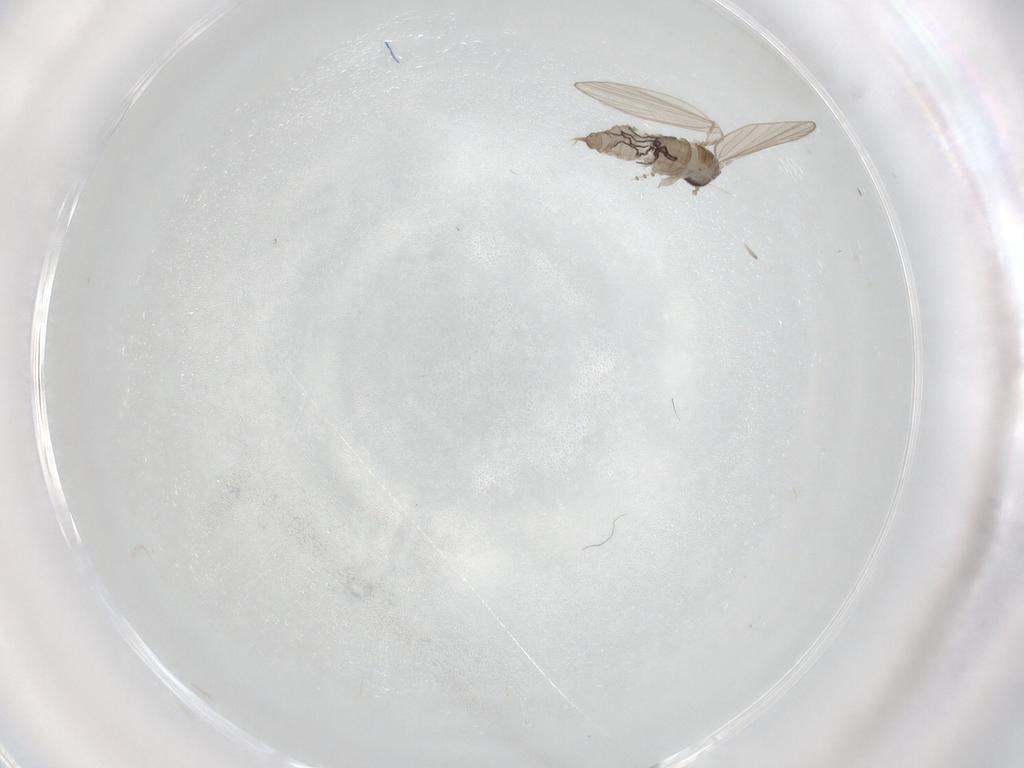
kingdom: Animalia
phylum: Arthropoda
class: Insecta
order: Diptera
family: Psychodidae
